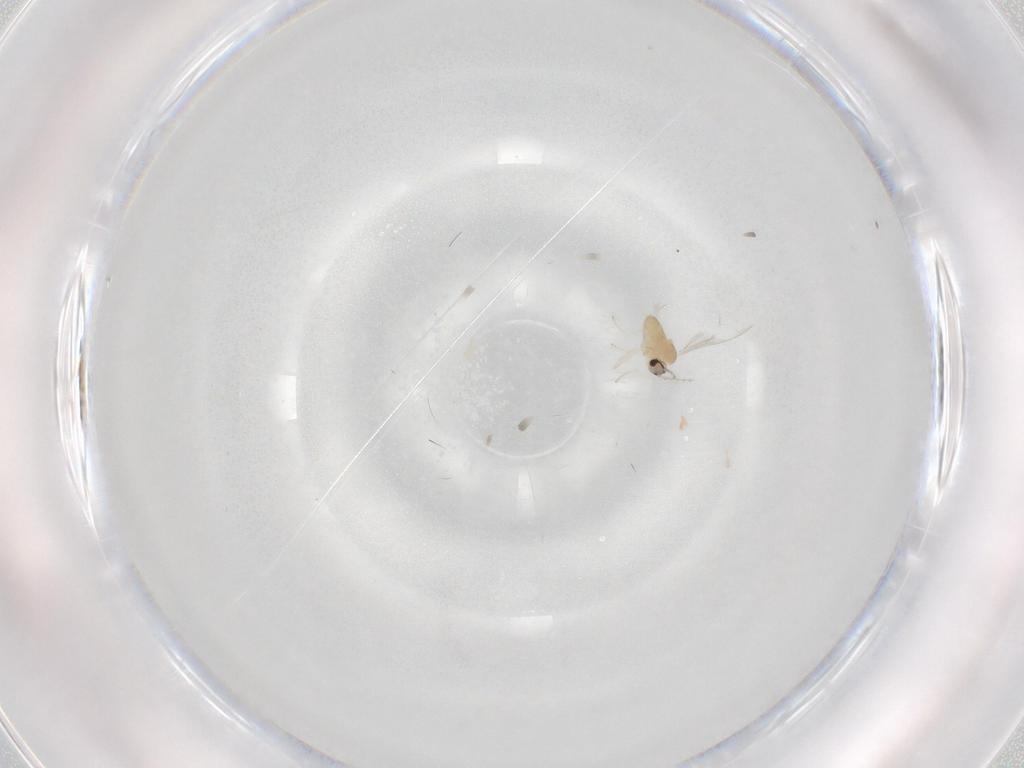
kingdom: Animalia
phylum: Arthropoda
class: Insecta
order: Diptera
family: Cecidomyiidae
